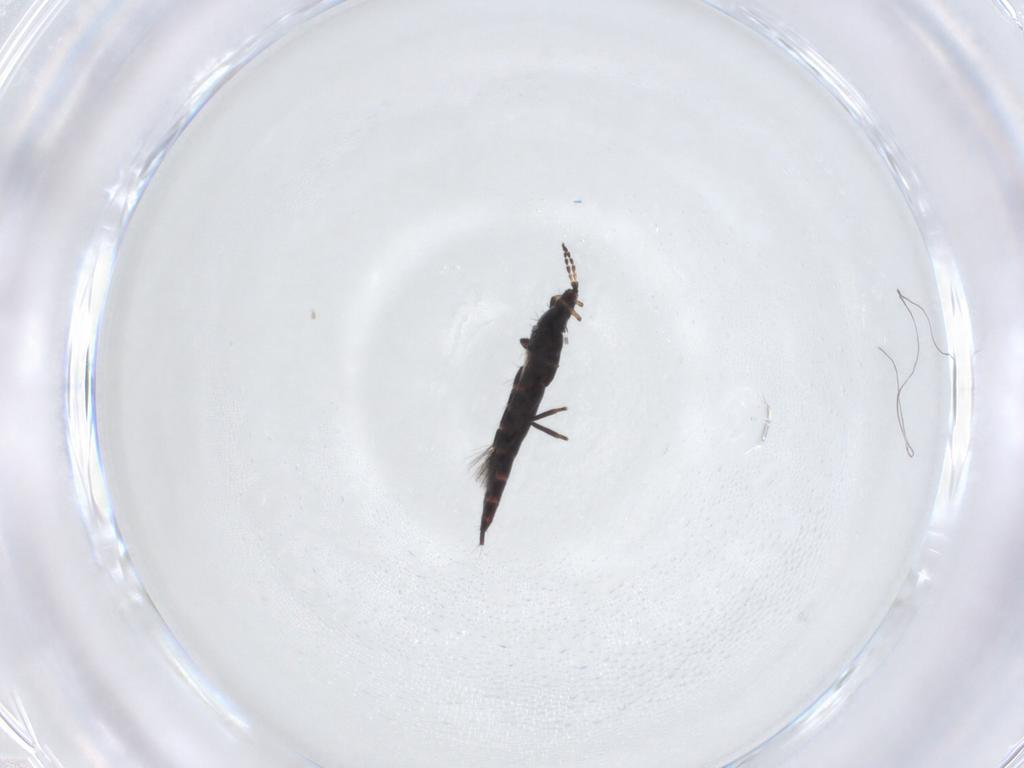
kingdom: Animalia
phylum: Arthropoda
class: Insecta
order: Thysanoptera
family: Phlaeothripidae
